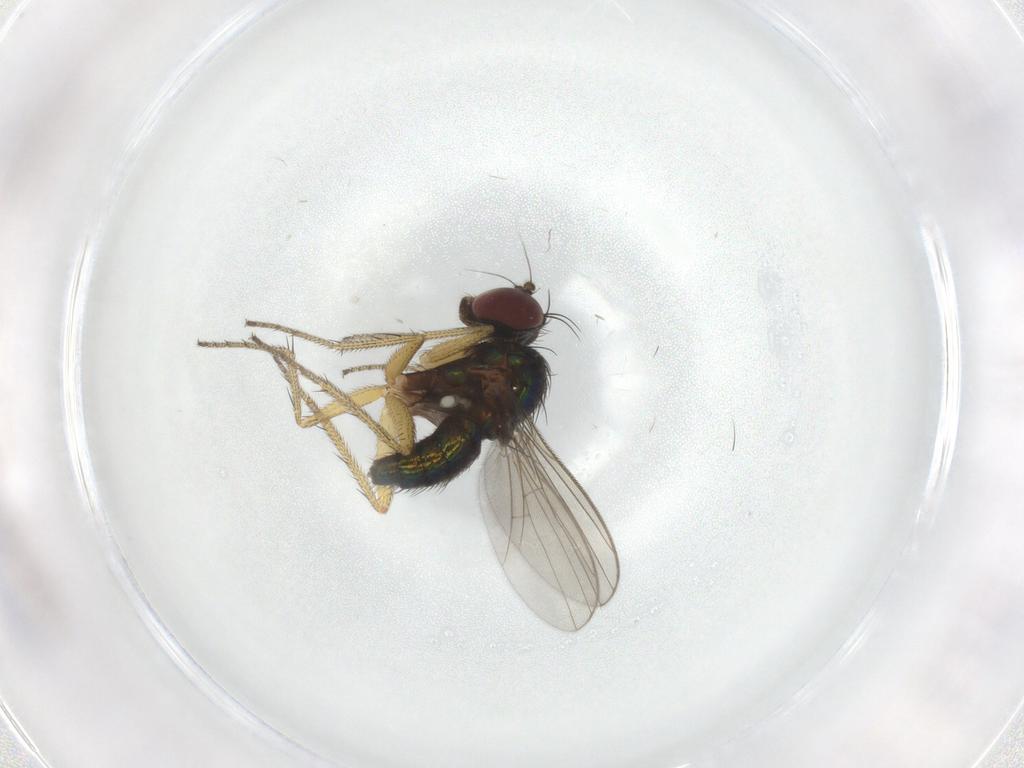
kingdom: Animalia
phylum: Arthropoda
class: Insecta
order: Diptera
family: Dolichopodidae
